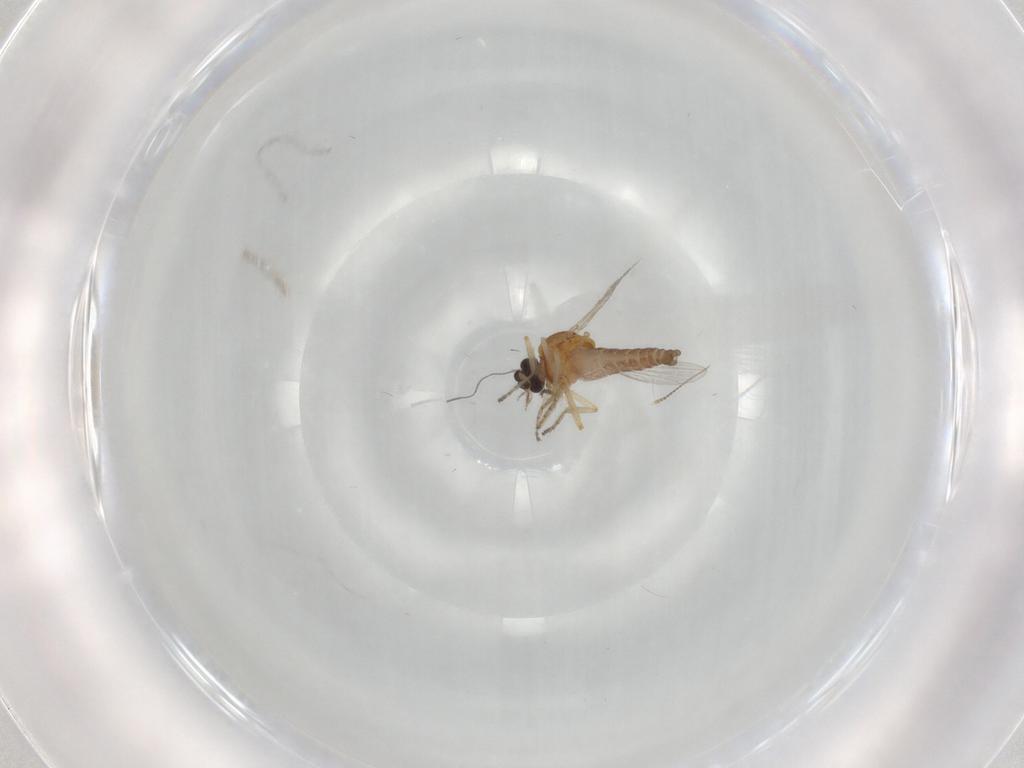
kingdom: Animalia
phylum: Arthropoda
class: Insecta
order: Diptera
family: Ceratopogonidae
